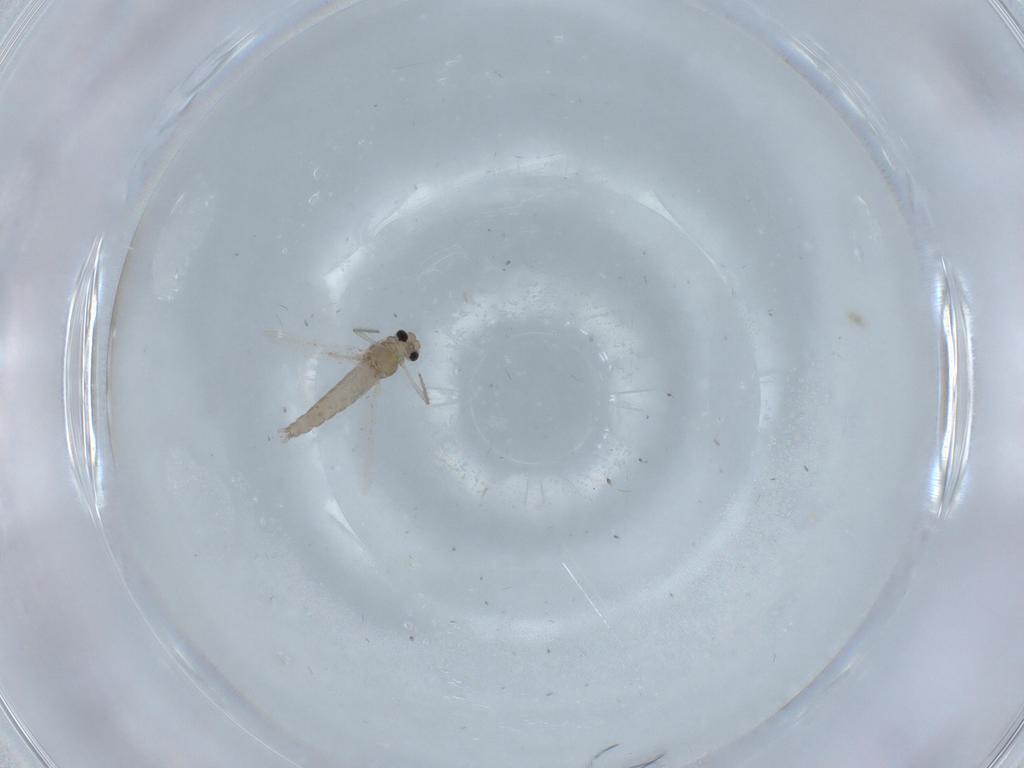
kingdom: Animalia
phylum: Arthropoda
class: Insecta
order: Diptera
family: Chironomidae
